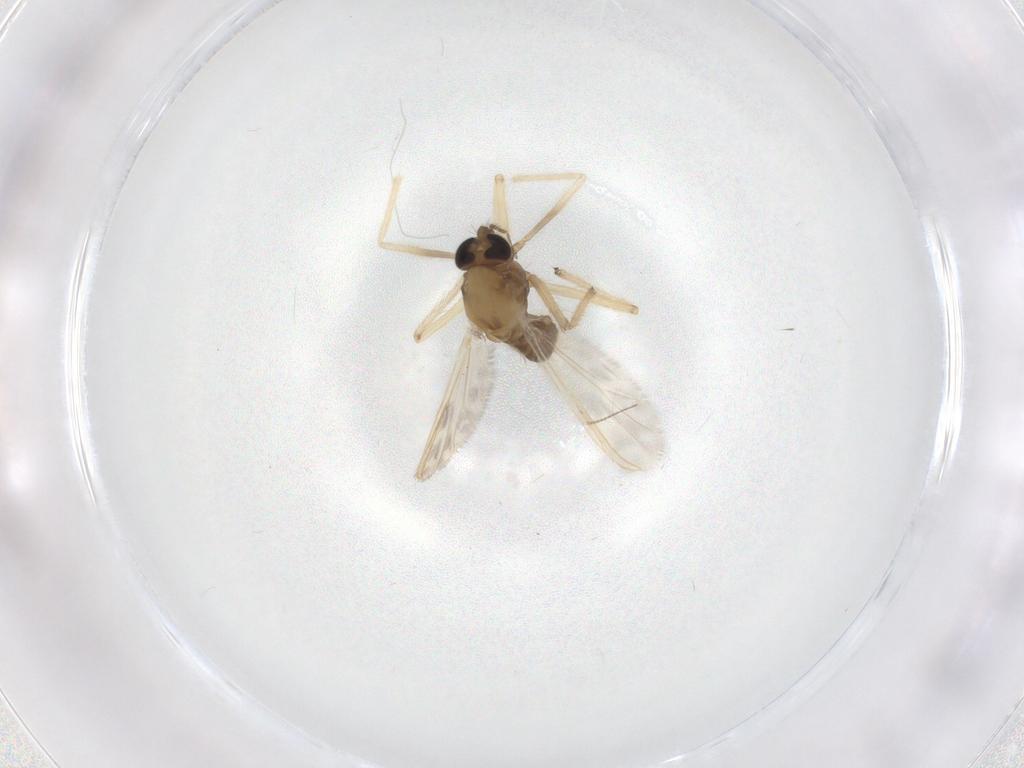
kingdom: Animalia
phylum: Arthropoda
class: Insecta
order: Diptera
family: Chironomidae
